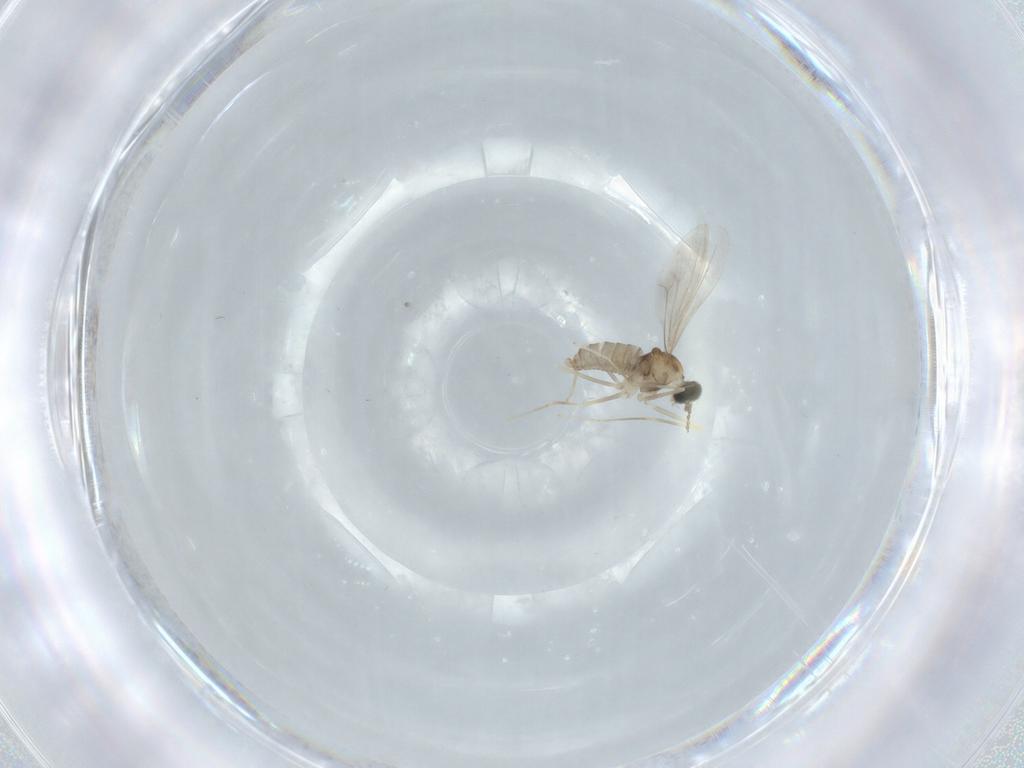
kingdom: Animalia
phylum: Arthropoda
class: Insecta
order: Diptera
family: Cecidomyiidae
